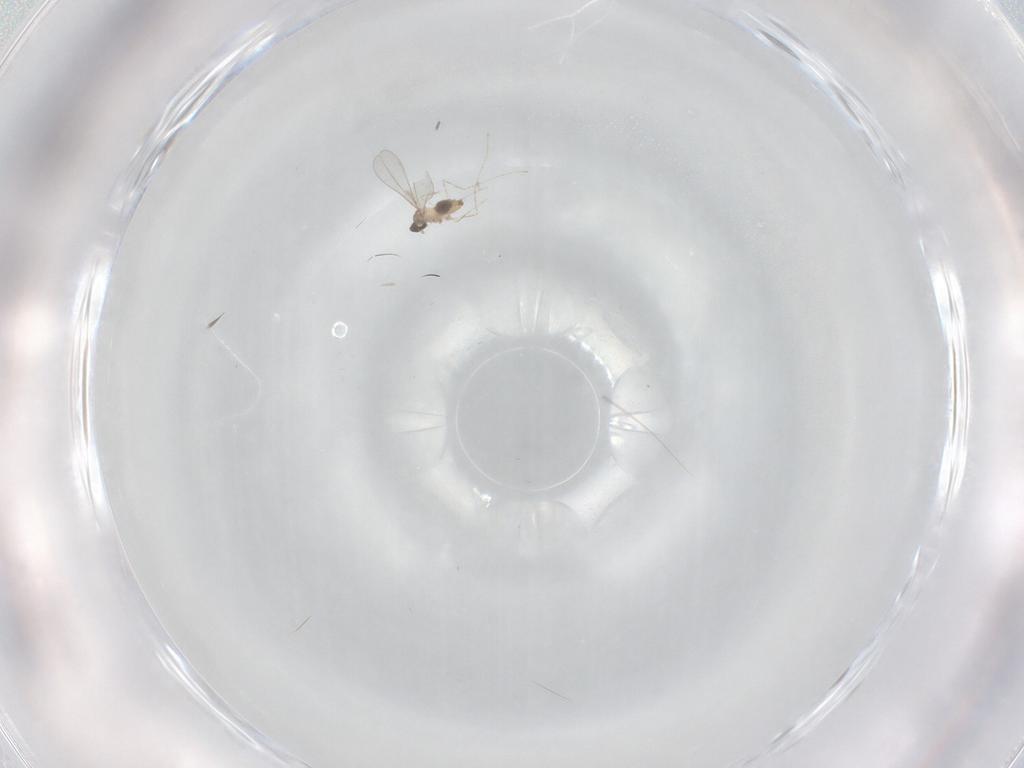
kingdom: Animalia
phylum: Arthropoda
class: Insecta
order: Diptera
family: Cecidomyiidae
